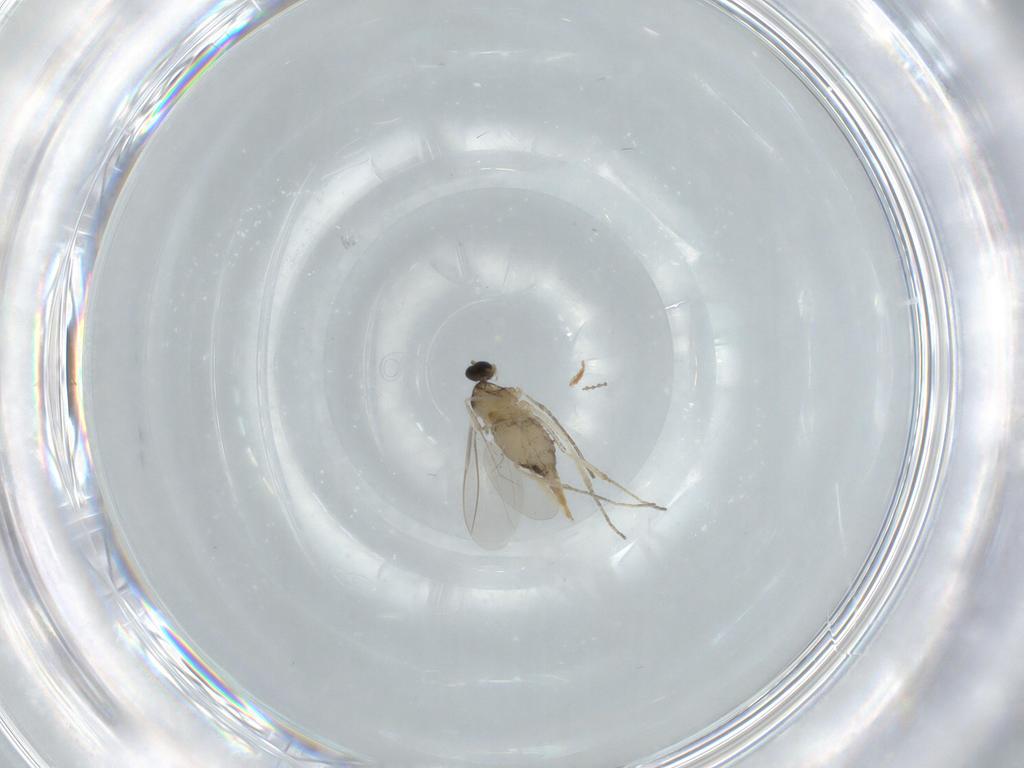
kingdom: Animalia
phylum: Arthropoda
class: Insecta
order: Diptera
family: Cecidomyiidae
